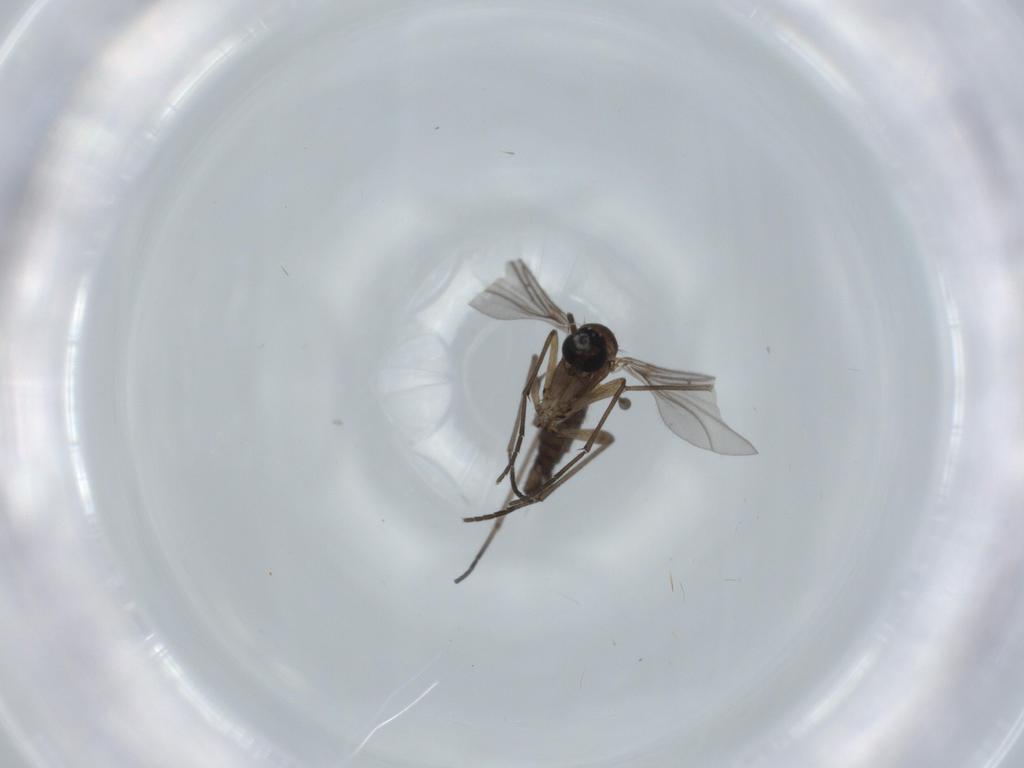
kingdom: Animalia
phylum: Arthropoda
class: Insecta
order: Diptera
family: Sciaridae
